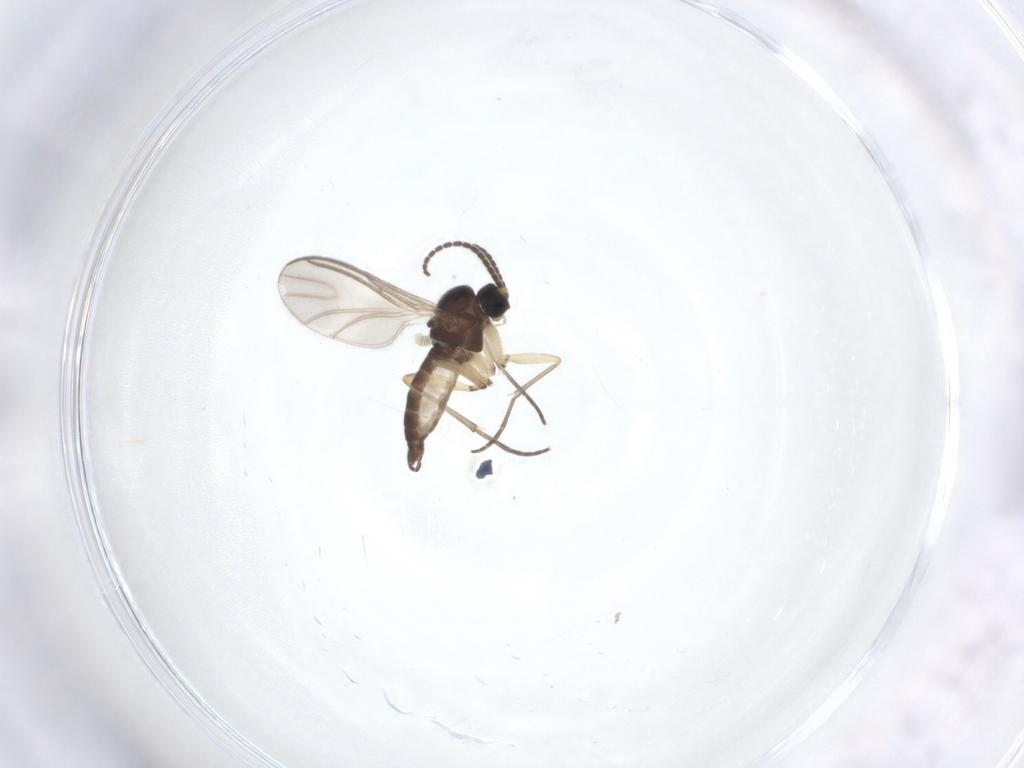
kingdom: Animalia
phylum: Arthropoda
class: Insecta
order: Diptera
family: Sciaridae
